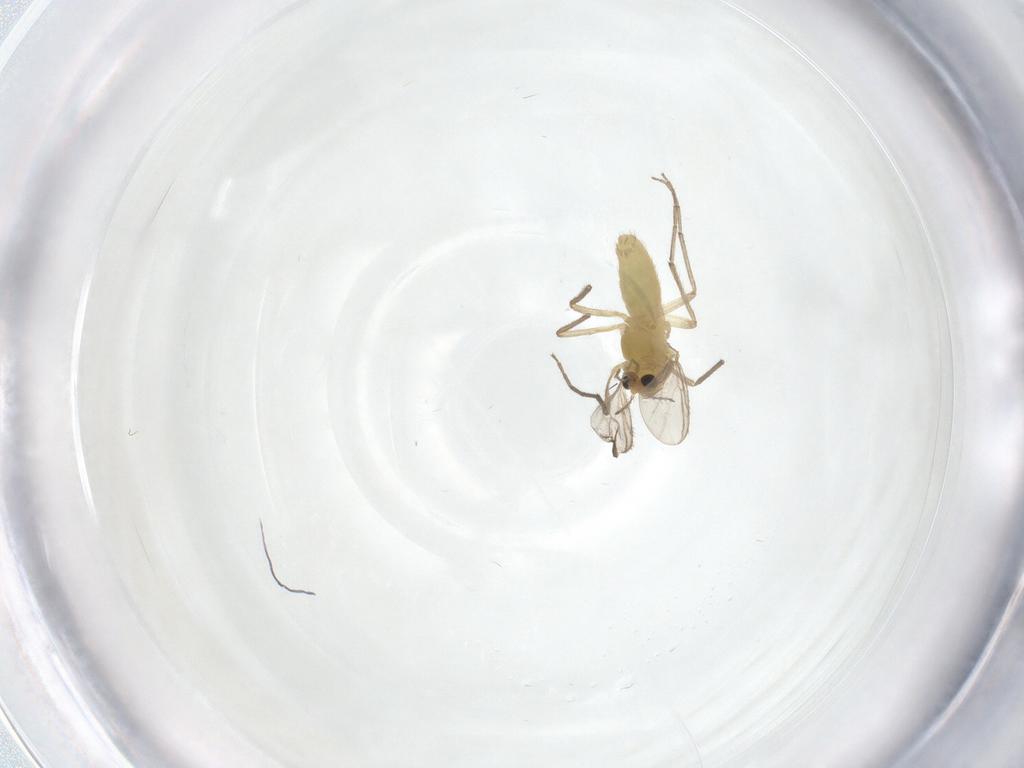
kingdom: Animalia
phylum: Arthropoda
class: Insecta
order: Diptera
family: Chironomidae
